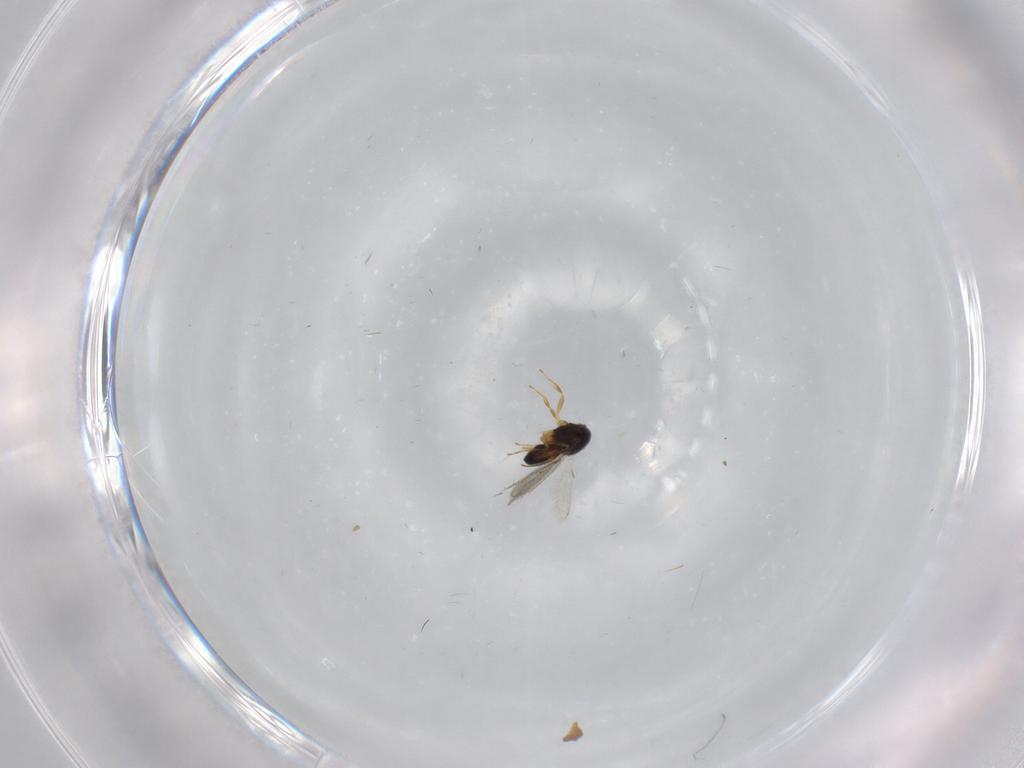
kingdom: Animalia
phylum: Arthropoda
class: Insecta
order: Hymenoptera
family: Scelionidae
